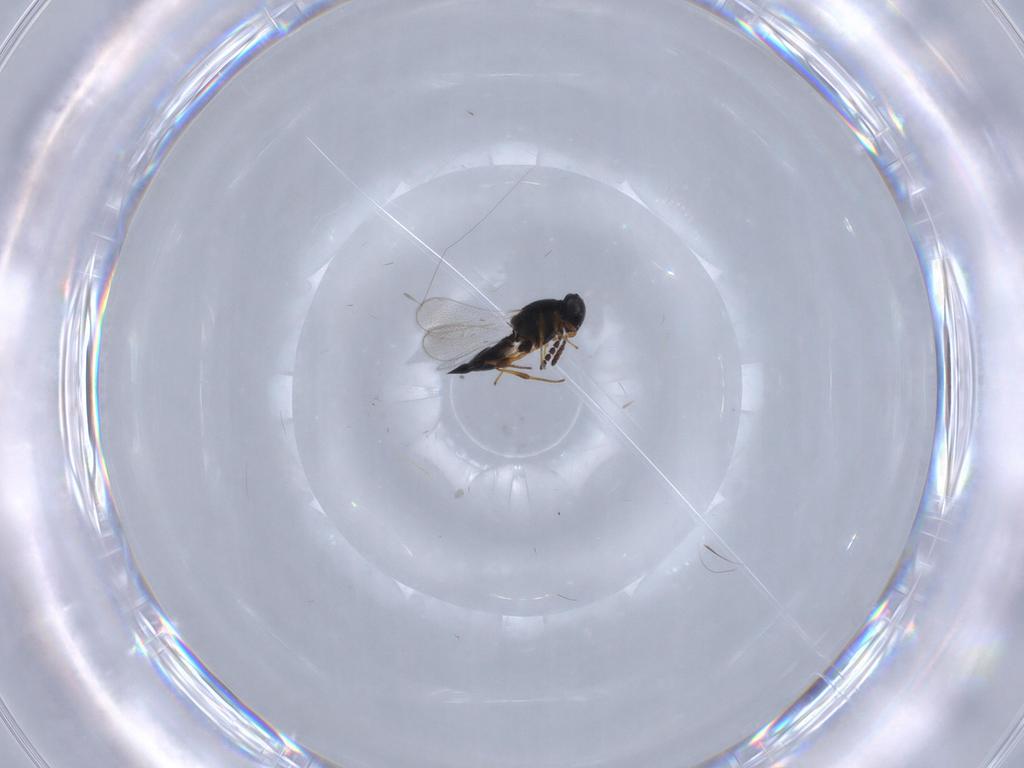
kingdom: Animalia
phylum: Arthropoda
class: Insecta
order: Hymenoptera
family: Platygastridae
